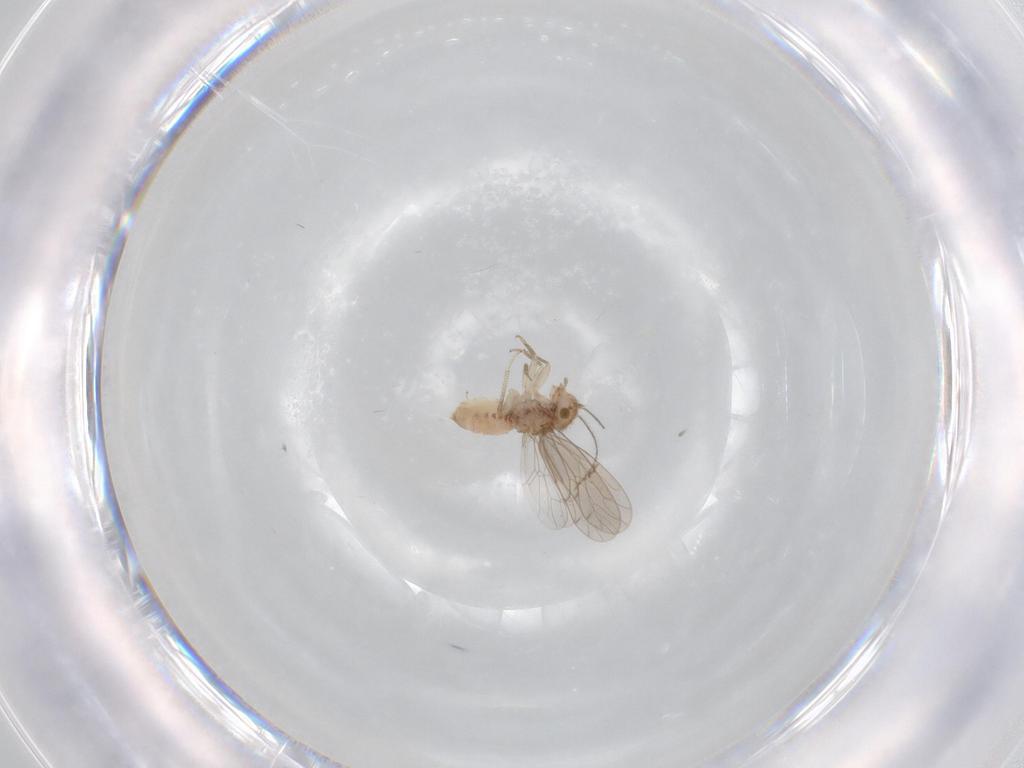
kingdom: Animalia
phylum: Arthropoda
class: Insecta
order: Psocodea
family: Ectopsocidae
